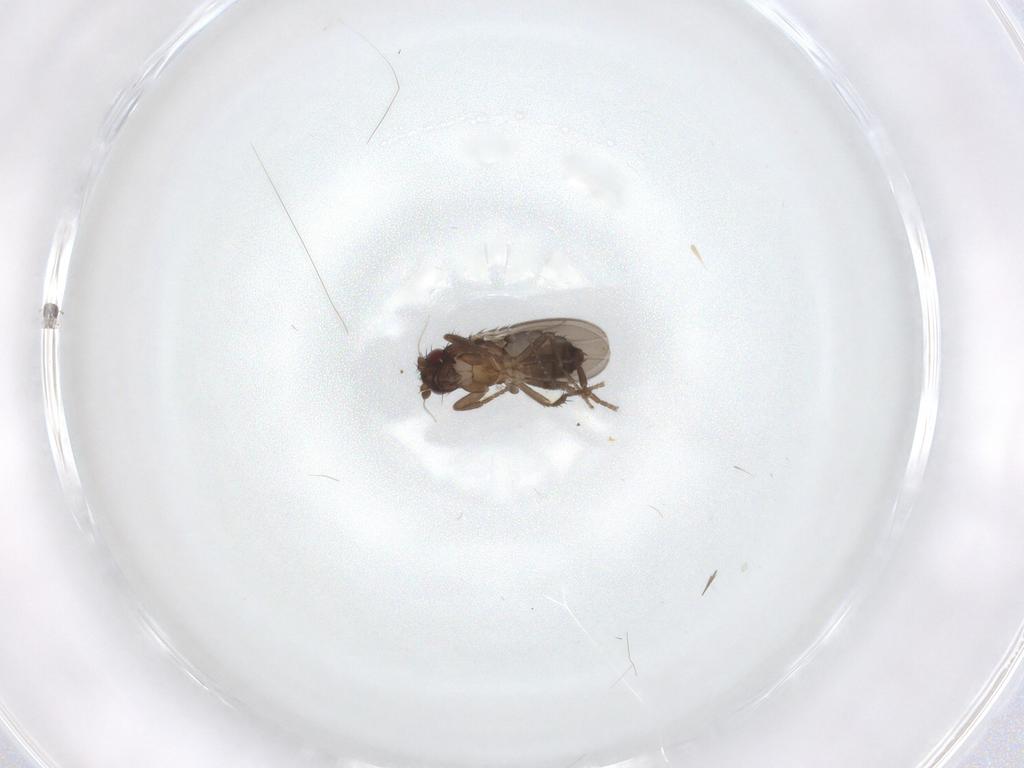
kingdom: Animalia
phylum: Arthropoda
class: Insecta
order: Diptera
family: Ceratopogonidae
